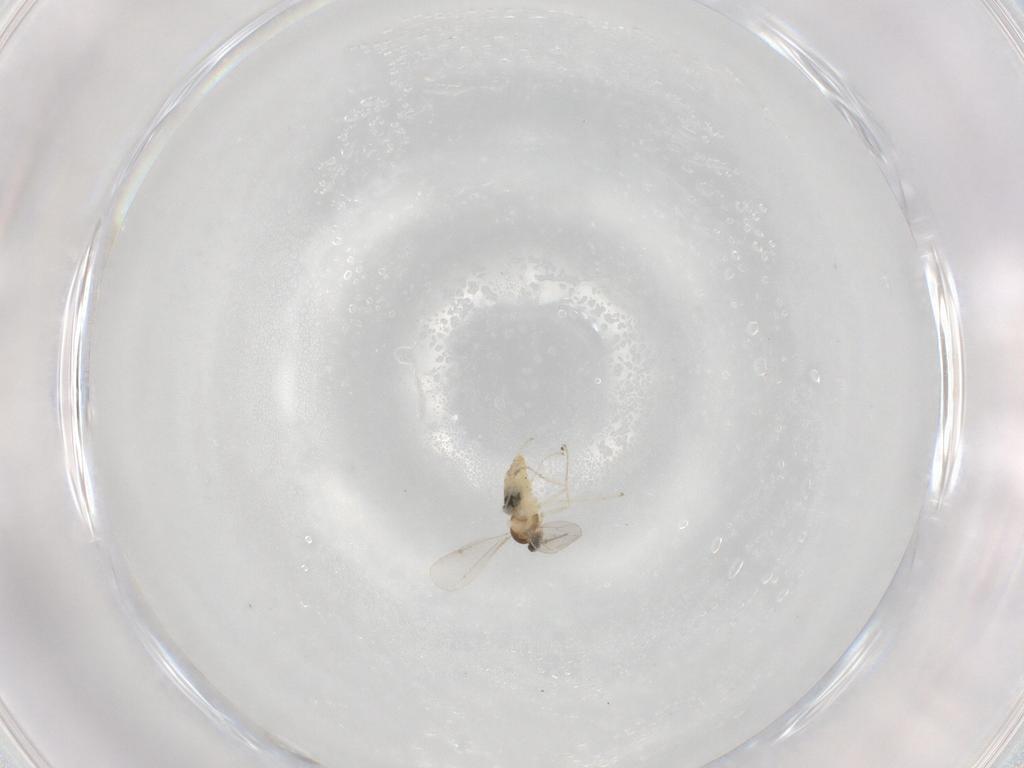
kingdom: Animalia
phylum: Arthropoda
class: Insecta
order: Diptera
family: Cecidomyiidae
